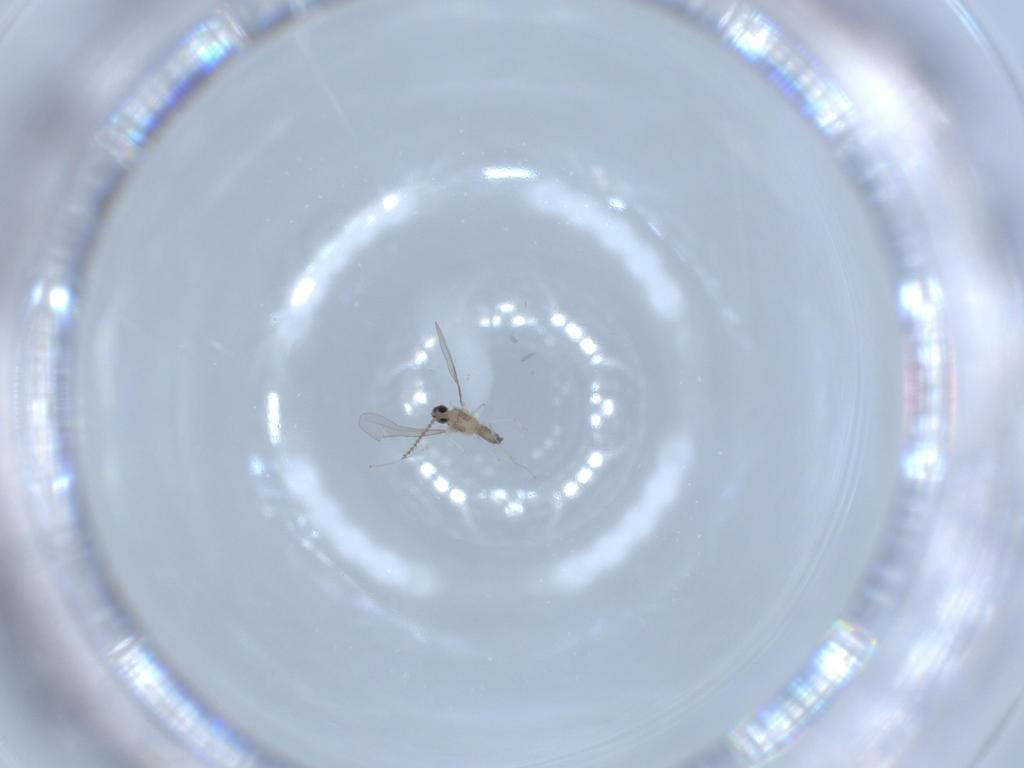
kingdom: Animalia
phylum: Arthropoda
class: Insecta
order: Diptera
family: Cecidomyiidae
